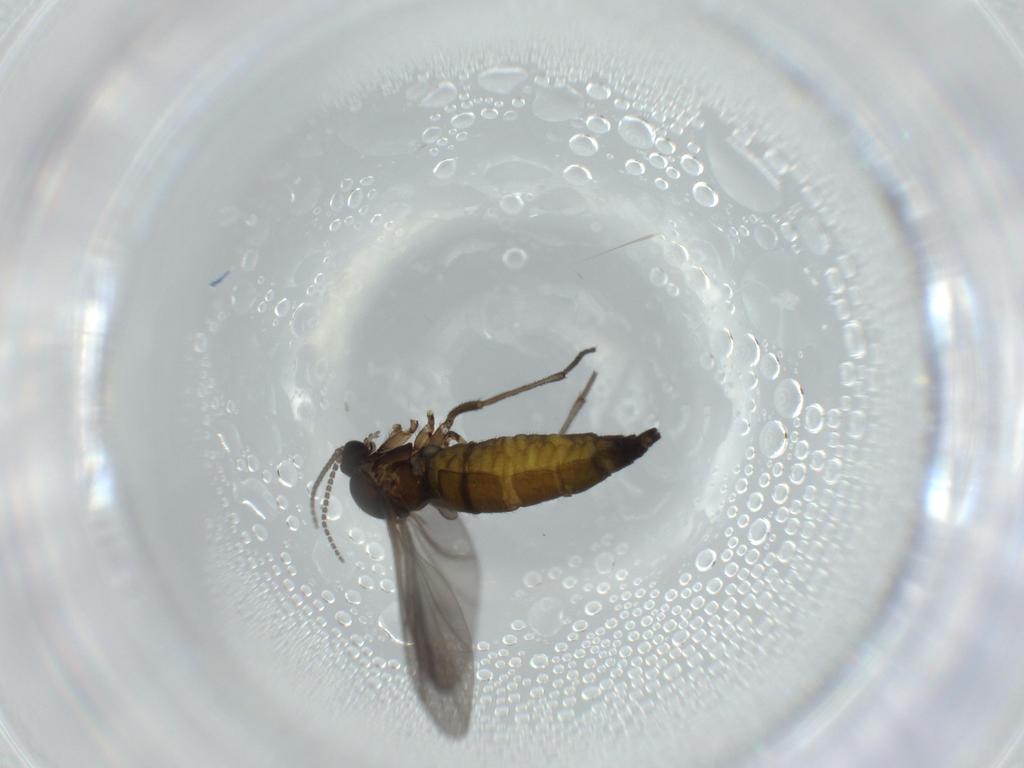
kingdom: Animalia
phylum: Arthropoda
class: Insecta
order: Diptera
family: Sciaridae
